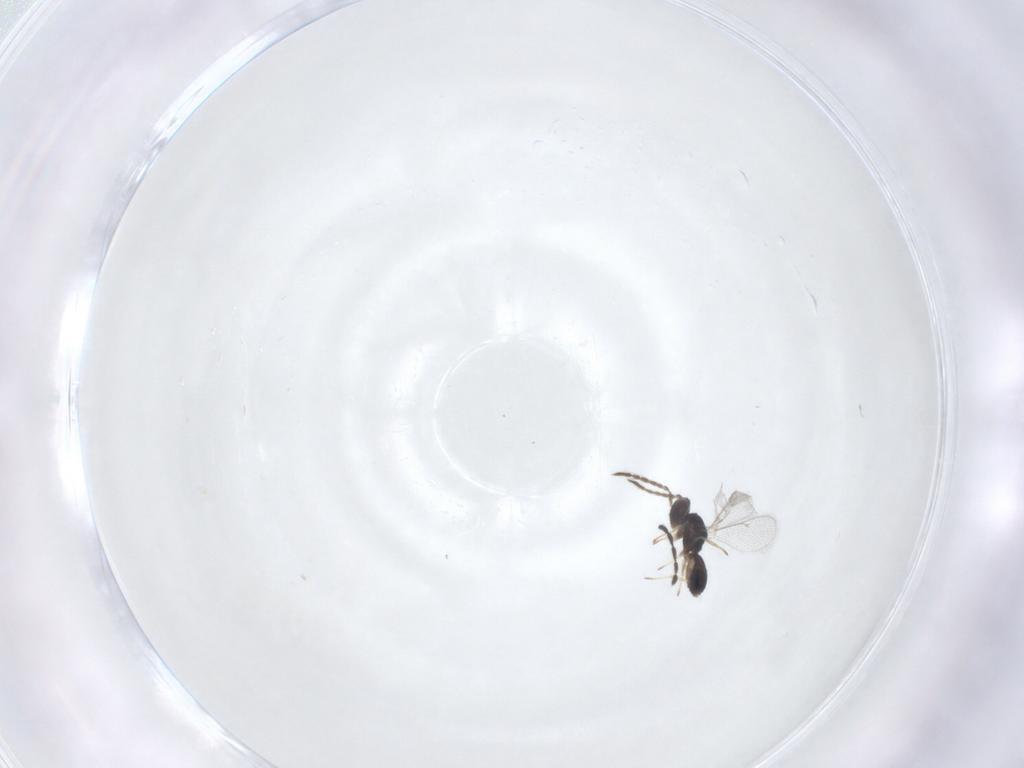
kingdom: Animalia
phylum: Arthropoda
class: Insecta
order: Hymenoptera
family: Eulophidae
